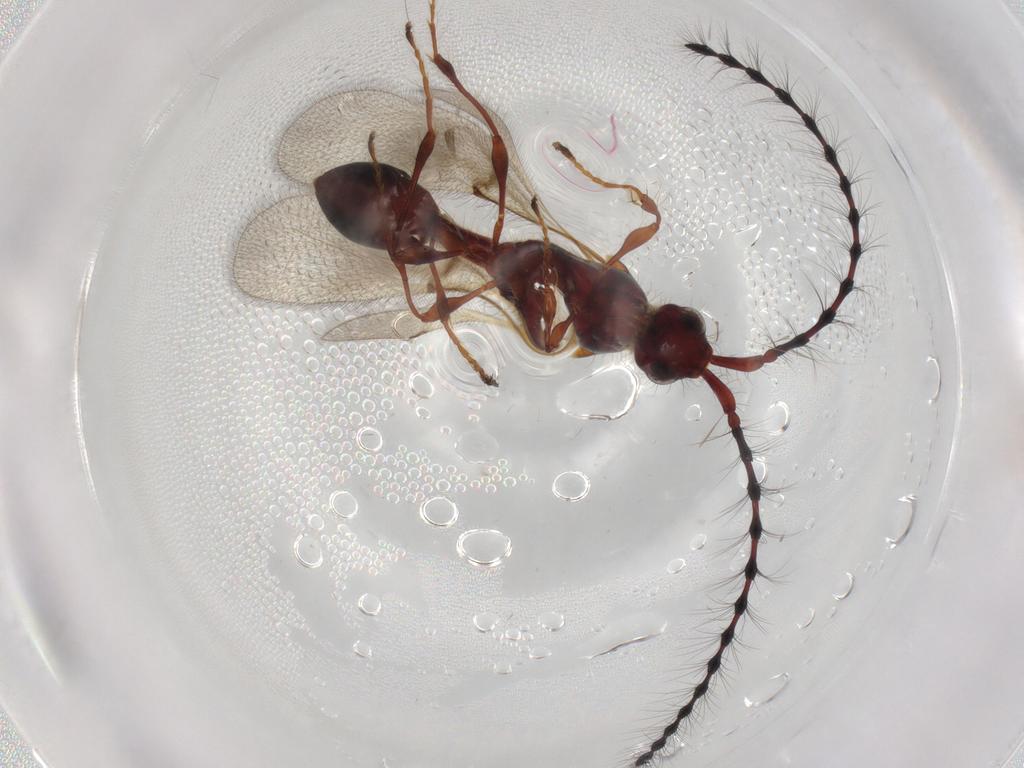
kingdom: Animalia
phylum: Arthropoda
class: Insecta
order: Hymenoptera
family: Diapriidae
